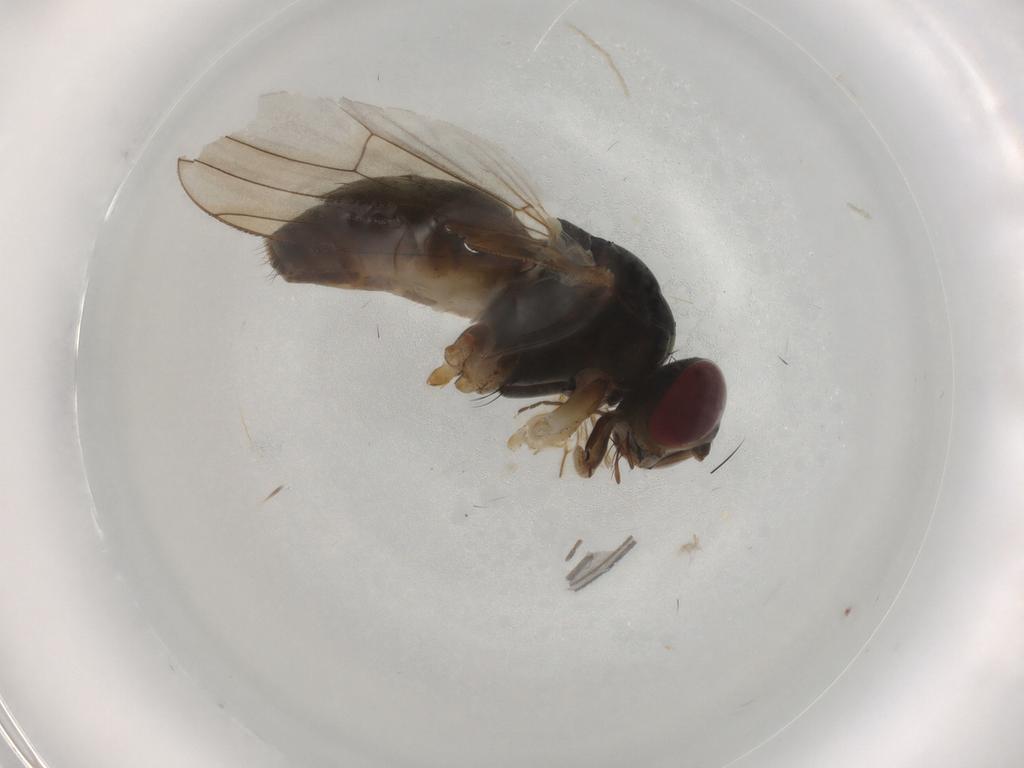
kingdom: Animalia
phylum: Arthropoda
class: Insecta
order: Diptera
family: Muscidae
